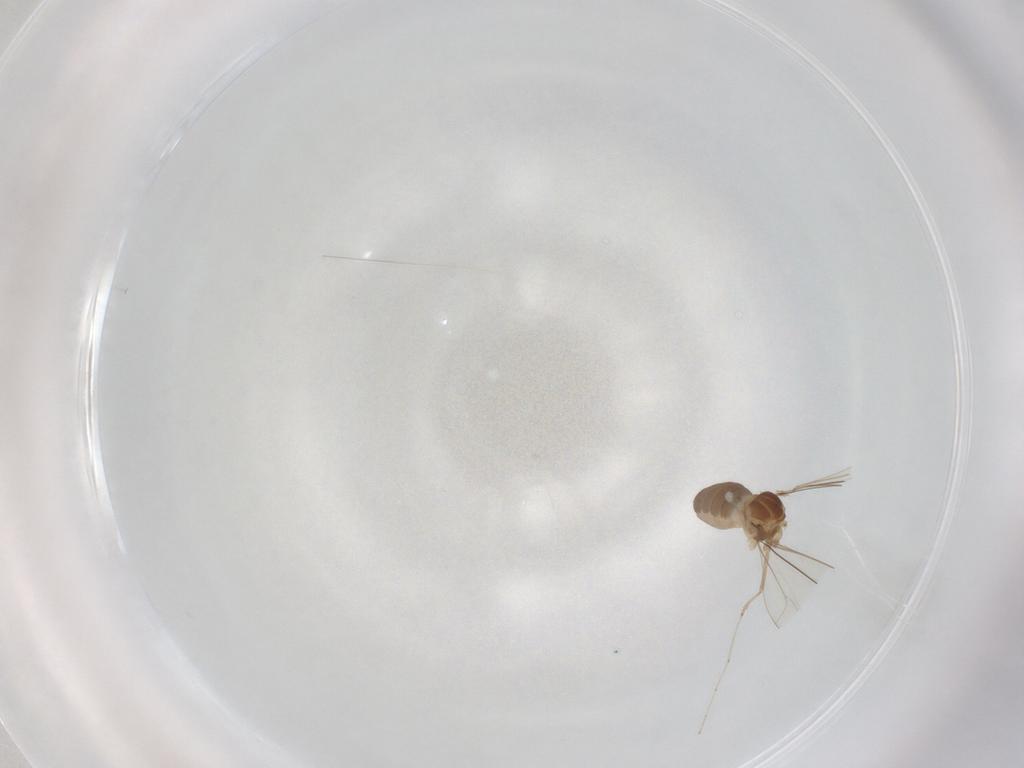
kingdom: Animalia
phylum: Arthropoda
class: Insecta
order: Diptera
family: Cecidomyiidae
